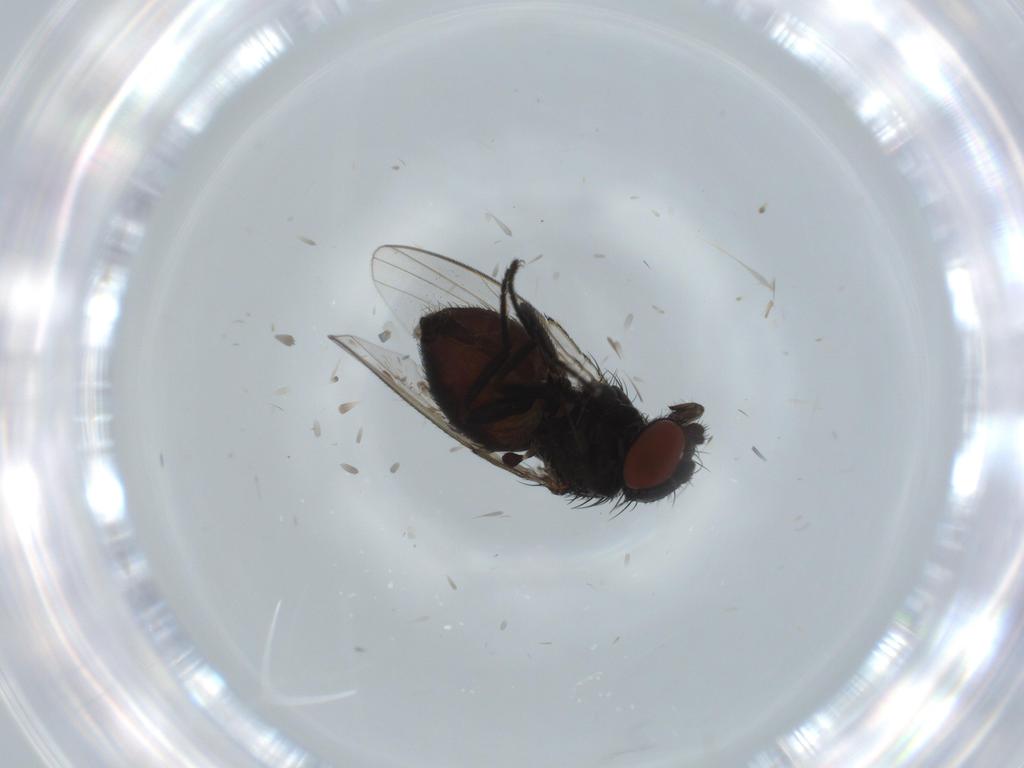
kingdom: Animalia
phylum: Arthropoda
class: Insecta
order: Diptera
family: Milichiidae
